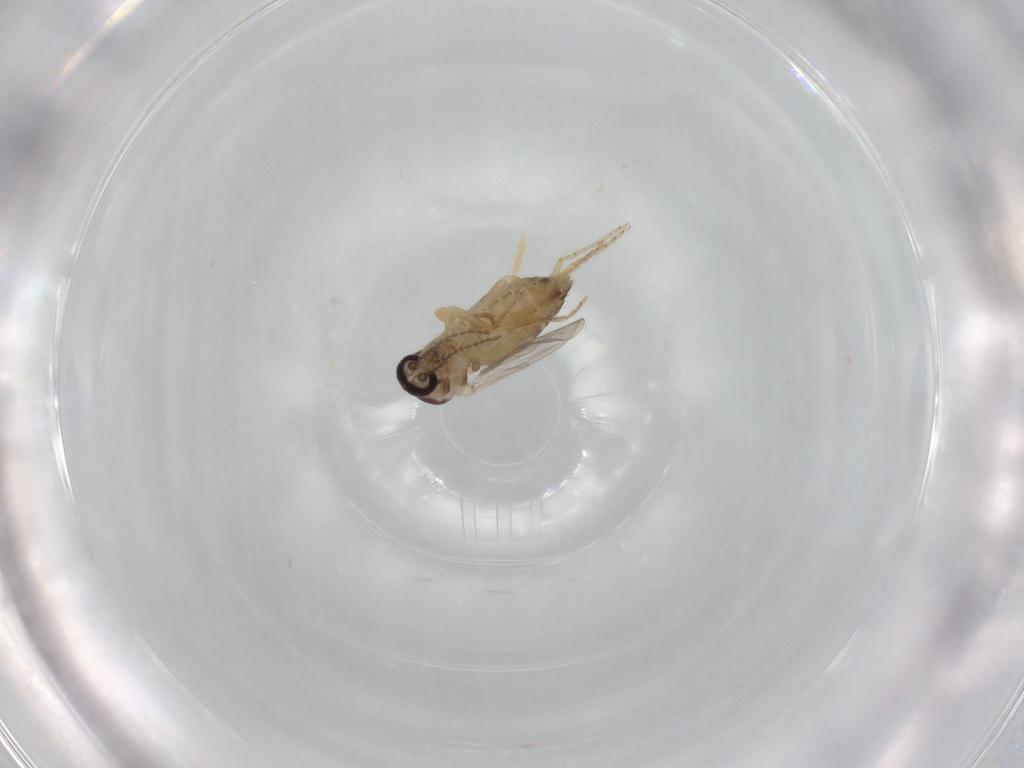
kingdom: Animalia
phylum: Arthropoda
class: Insecta
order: Diptera
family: Ceratopogonidae
